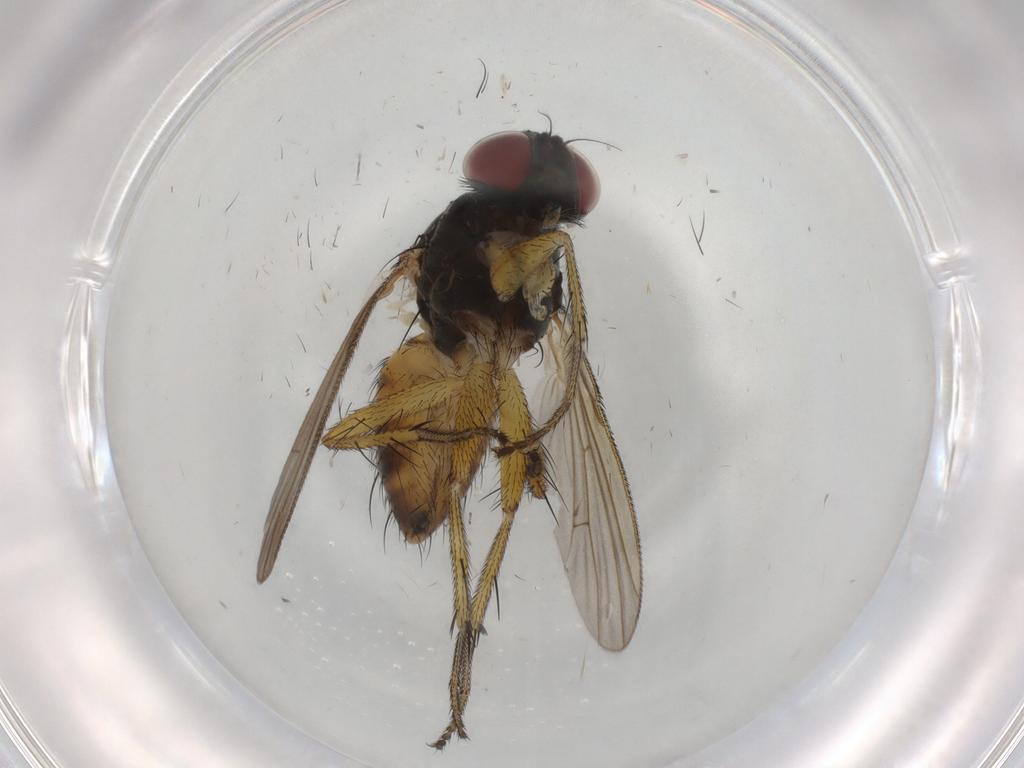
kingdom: Animalia
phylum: Arthropoda
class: Insecta
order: Diptera
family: Muscidae
